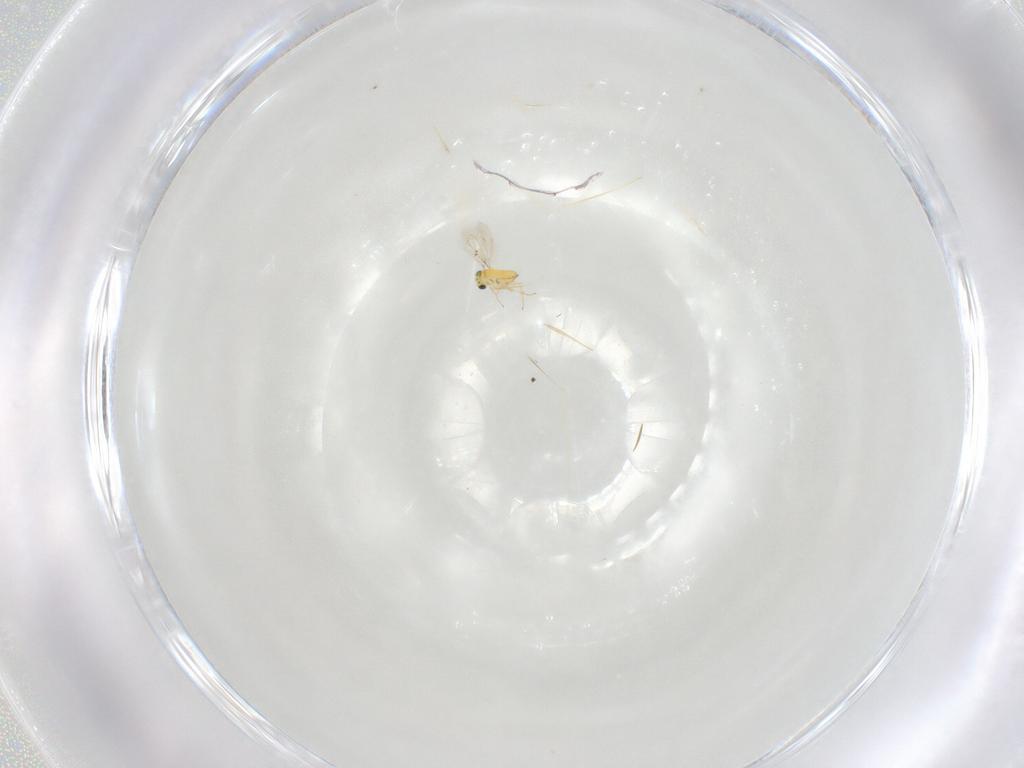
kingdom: Animalia
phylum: Arthropoda
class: Insecta
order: Hymenoptera
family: Trichogrammatidae
